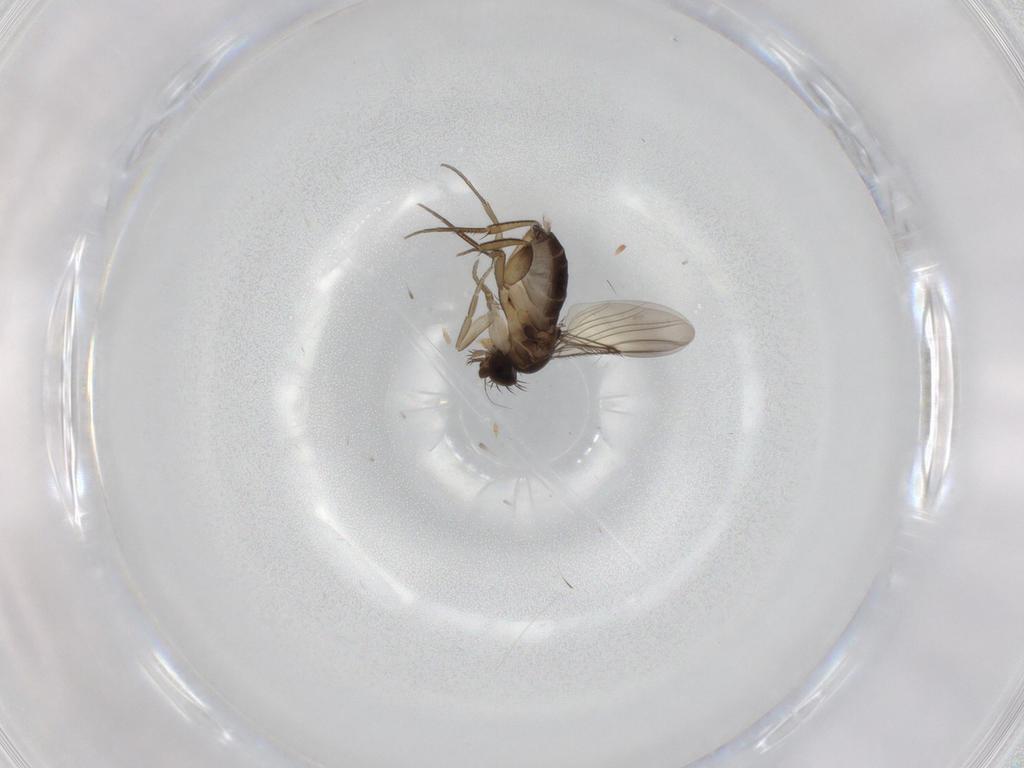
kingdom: Animalia
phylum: Arthropoda
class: Insecta
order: Diptera
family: Phoridae
